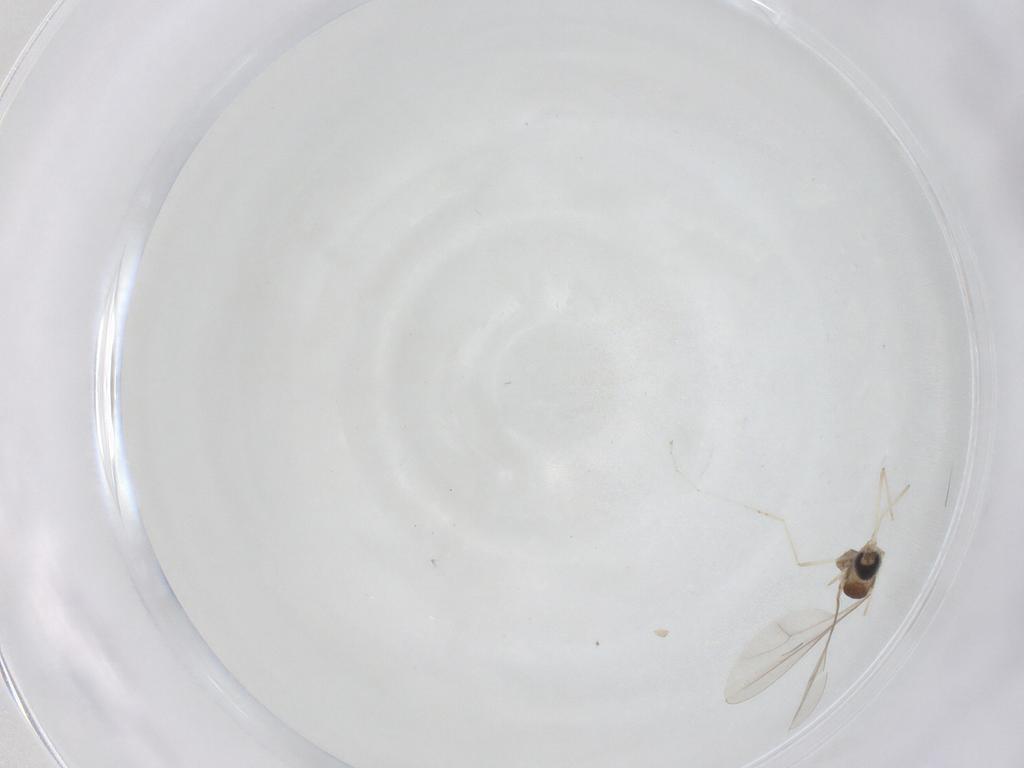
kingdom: Animalia
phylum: Arthropoda
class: Insecta
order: Diptera
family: Cecidomyiidae
